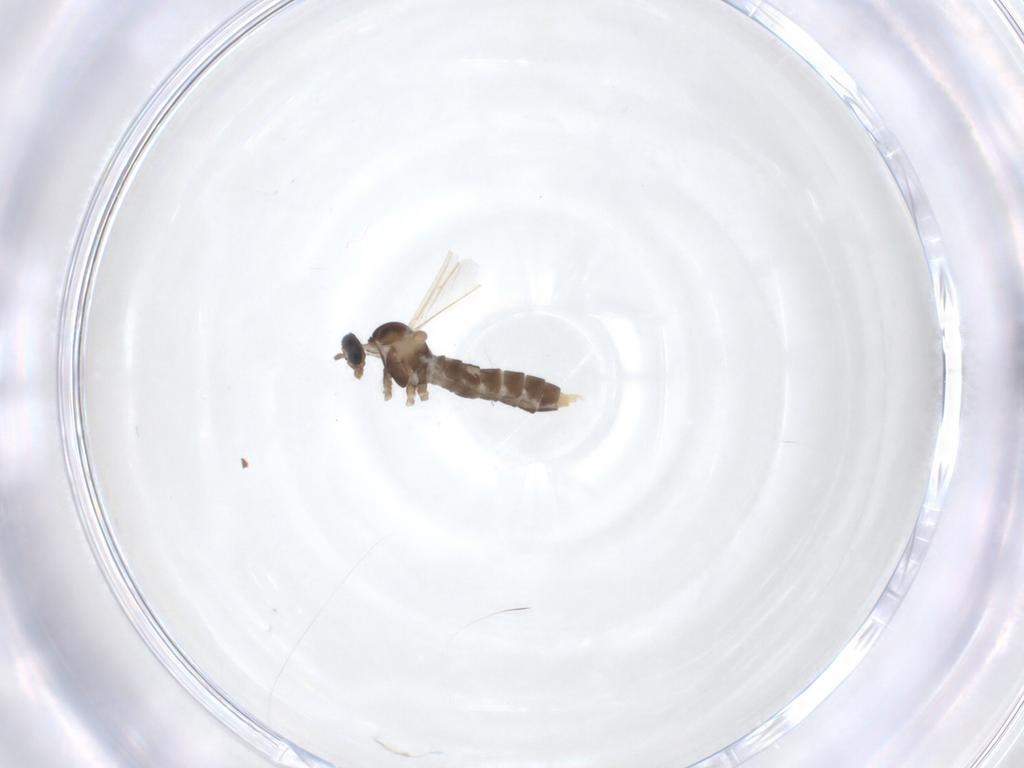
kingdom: Animalia
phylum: Arthropoda
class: Insecta
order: Diptera
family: Cecidomyiidae
